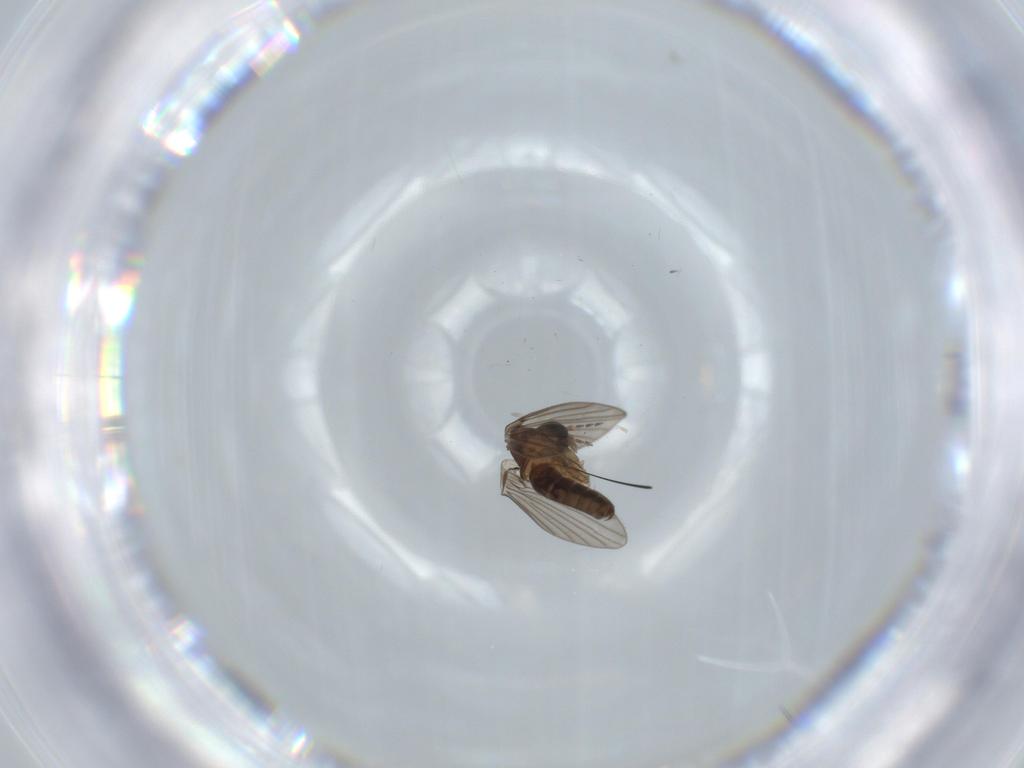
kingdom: Animalia
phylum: Arthropoda
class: Insecta
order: Diptera
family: Psychodidae
